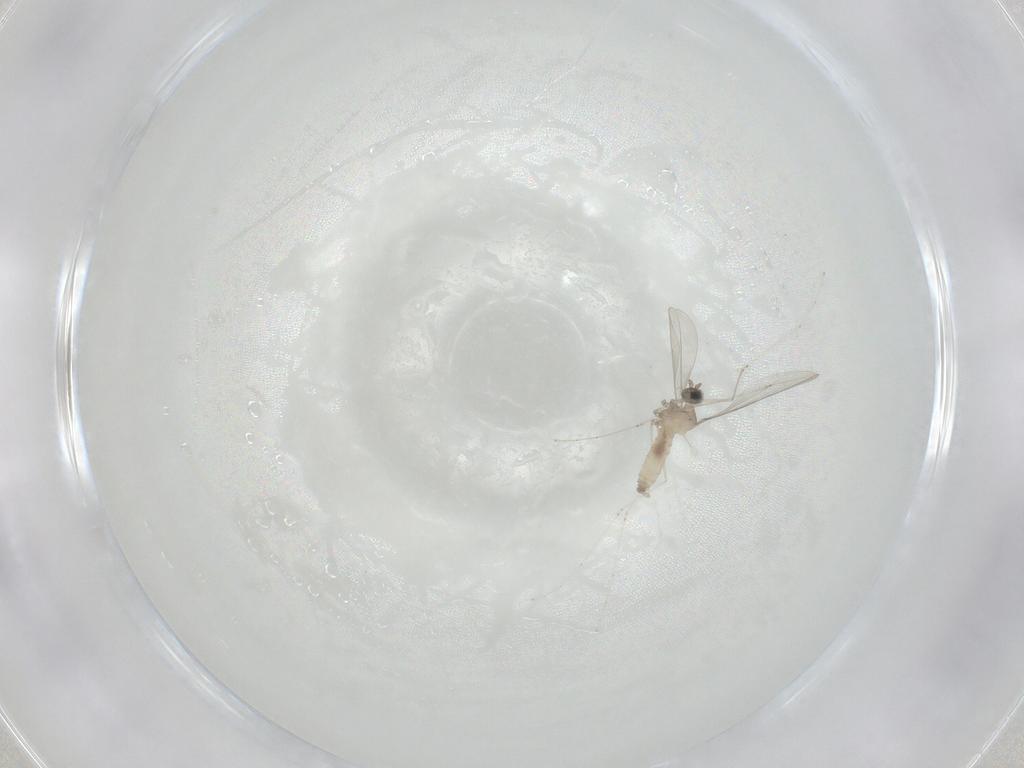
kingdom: Animalia
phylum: Arthropoda
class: Insecta
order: Diptera
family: Cecidomyiidae
